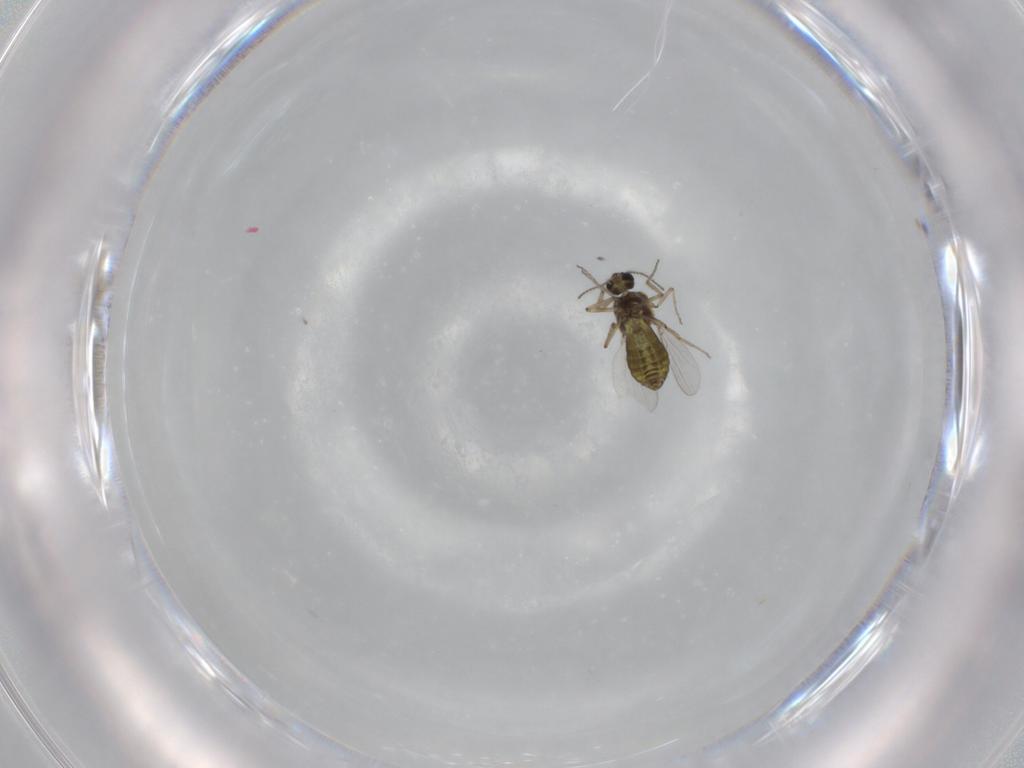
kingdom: Animalia
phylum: Arthropoda
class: Insecta
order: Diptera
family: Ceratopogonidae
